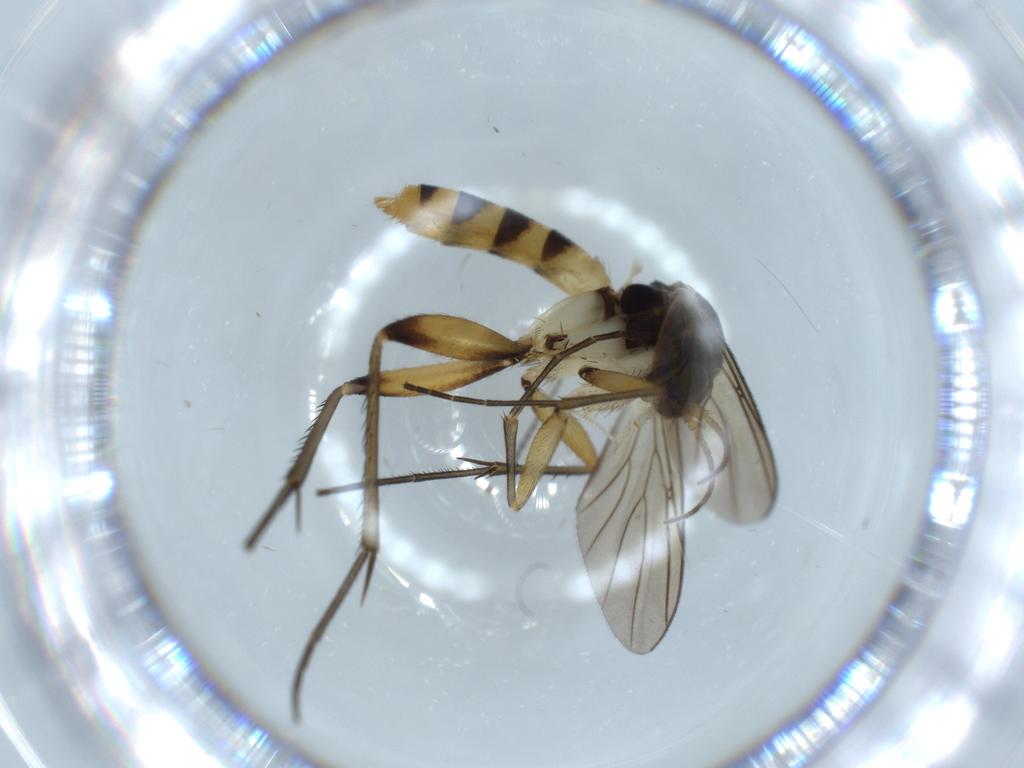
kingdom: Animalia
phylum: Arthropoda
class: Insecta
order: Diptera
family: Mycetophilidae
